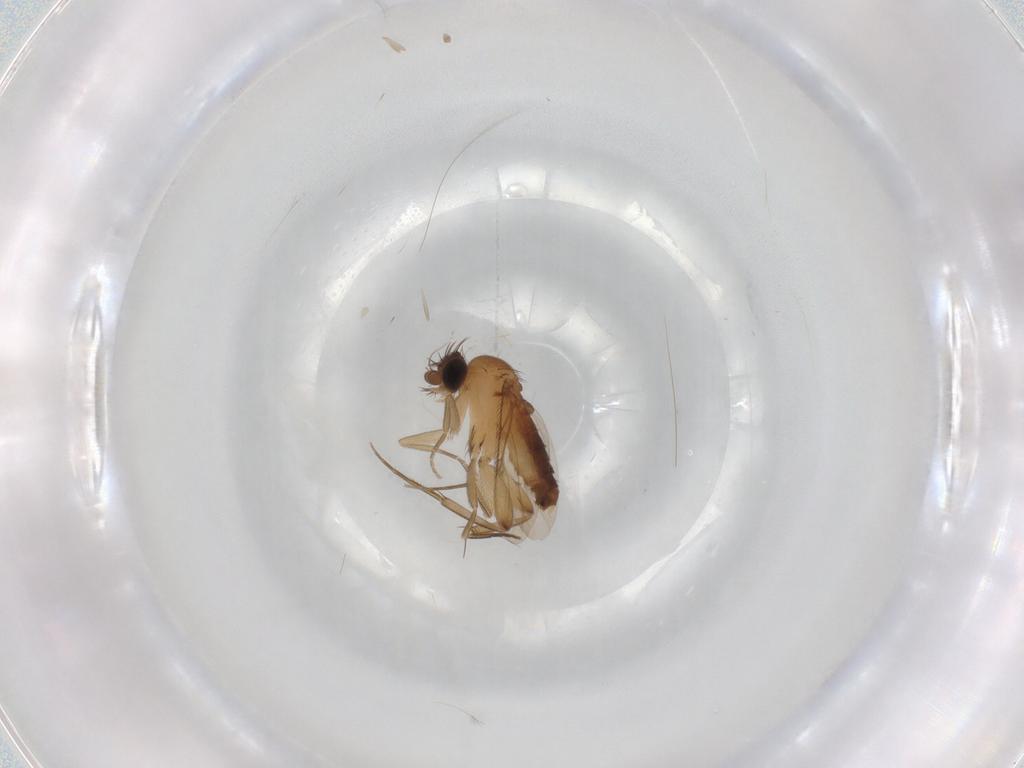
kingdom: Animalia
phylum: Arthropoda
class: Insecta
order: Diptera
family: Phoridae
